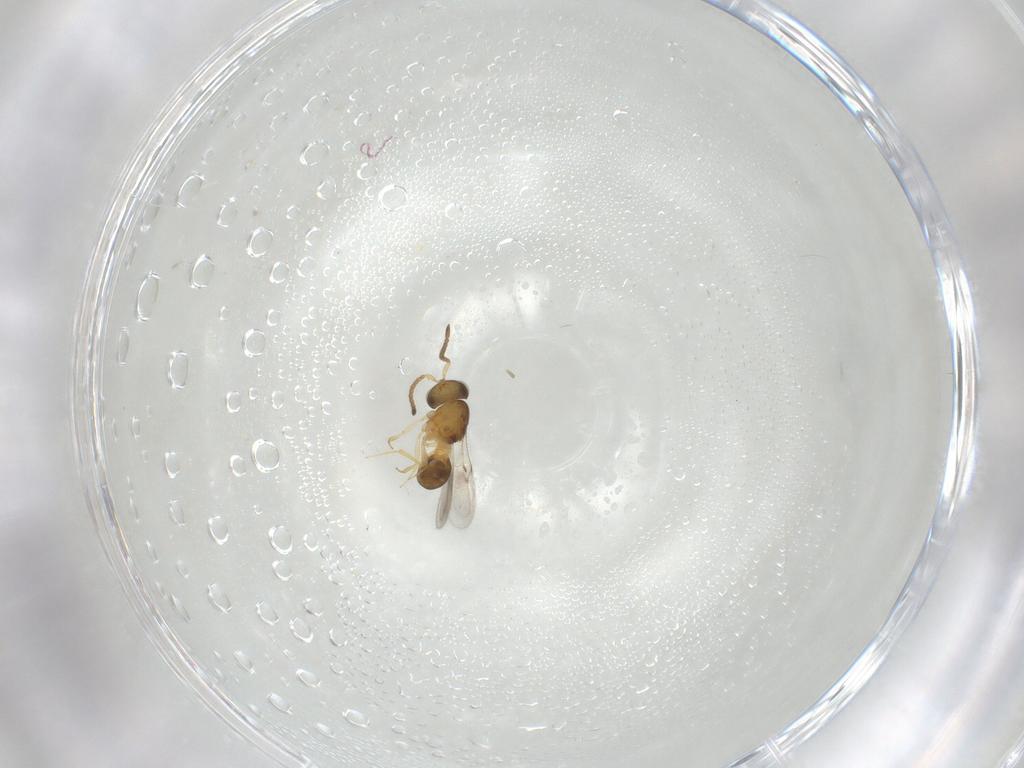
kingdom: Animalia
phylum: Arthropoda
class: Insecta
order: Hymenoptera
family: Scelionidae
